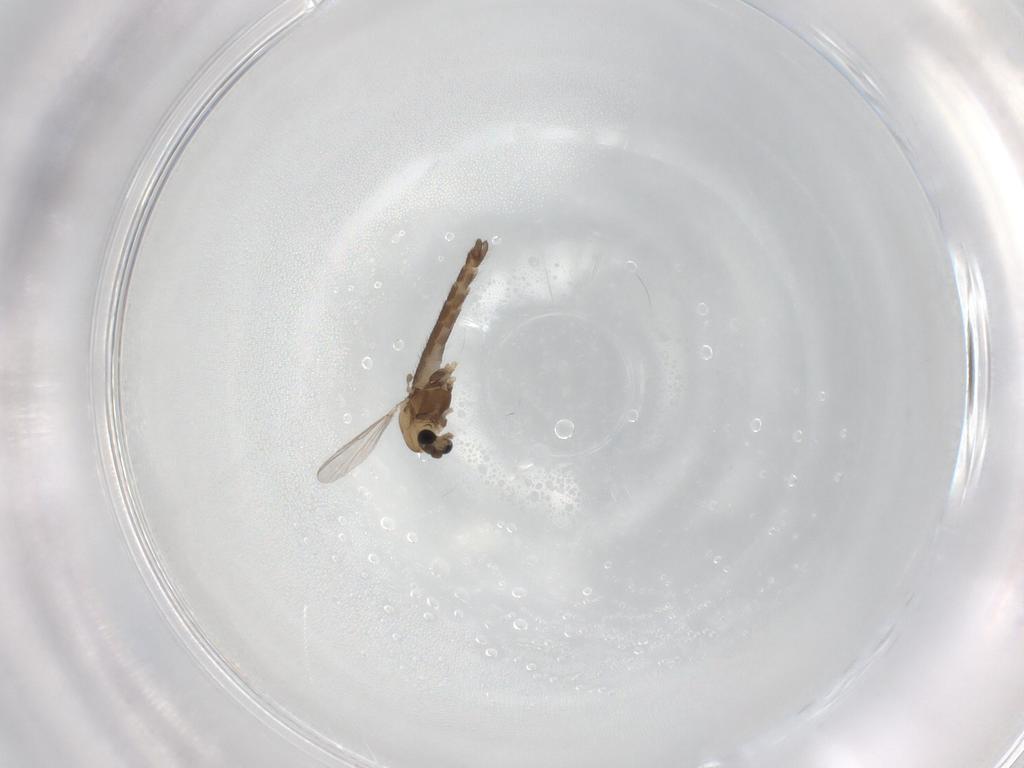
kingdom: Animalia
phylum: Arthropoda
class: Insecta
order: Diptera
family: Chironomidae
